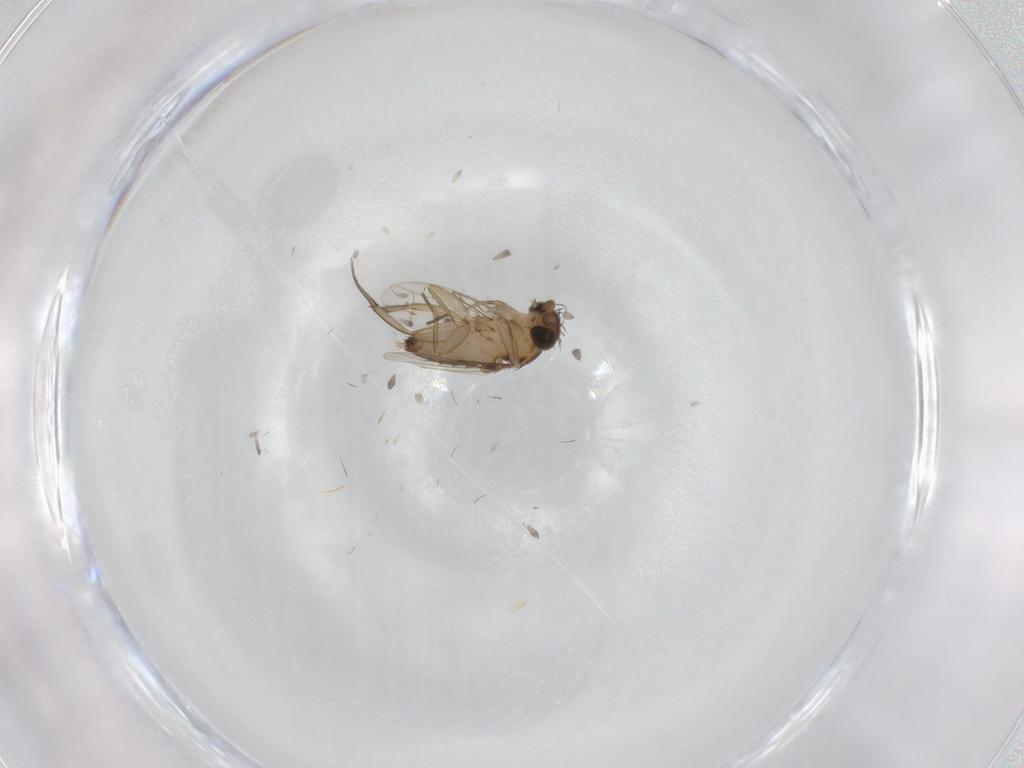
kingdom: Animalia
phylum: Arthropoda
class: Insecta
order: Diptera
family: Phoridae
